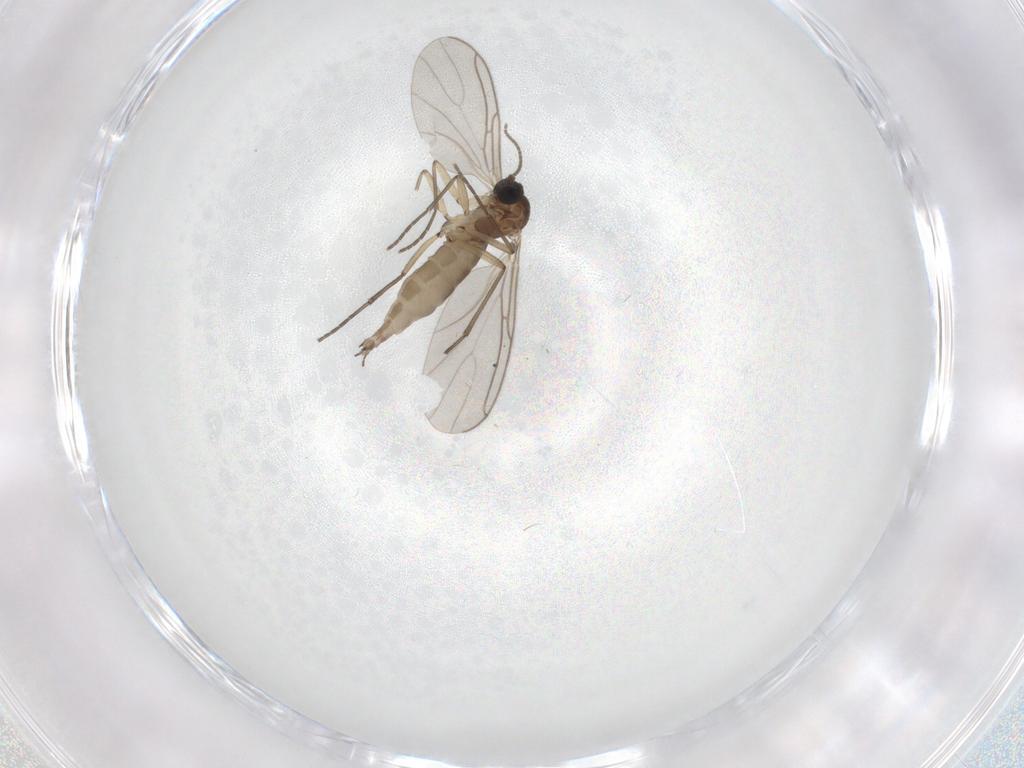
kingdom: Animalia
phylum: Arthropoda
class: Insecta
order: Diptera
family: Sciaridae
